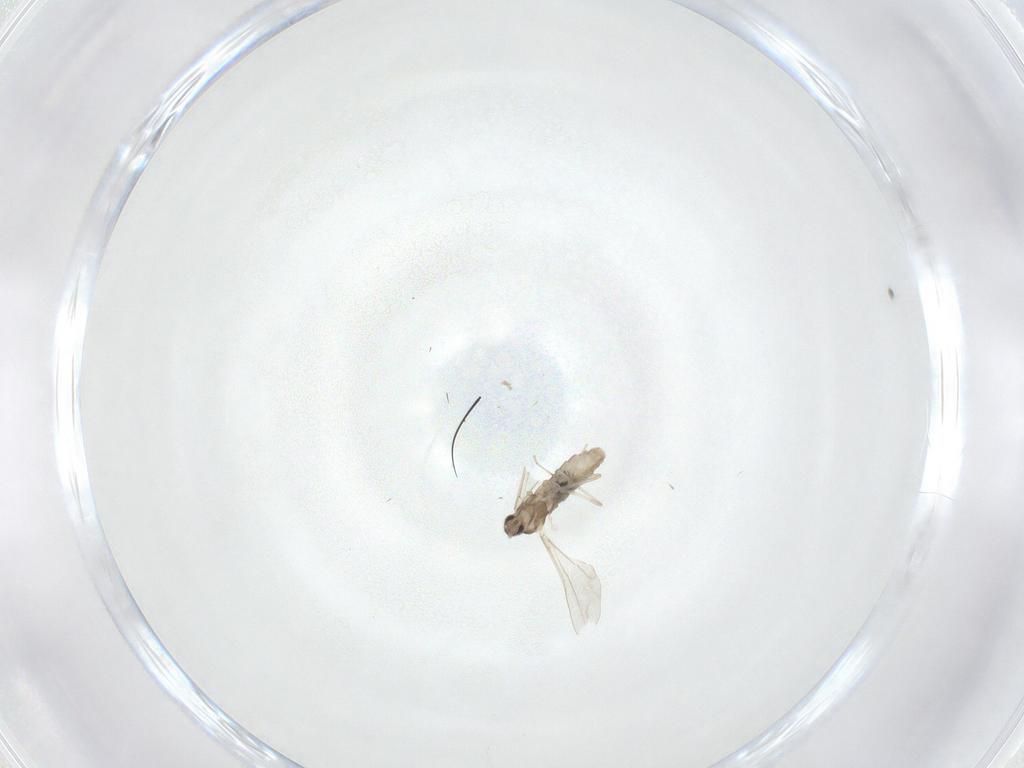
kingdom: Animalia
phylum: Arthropoda
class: Insecta
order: Diptera
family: Cecidomyiidae
